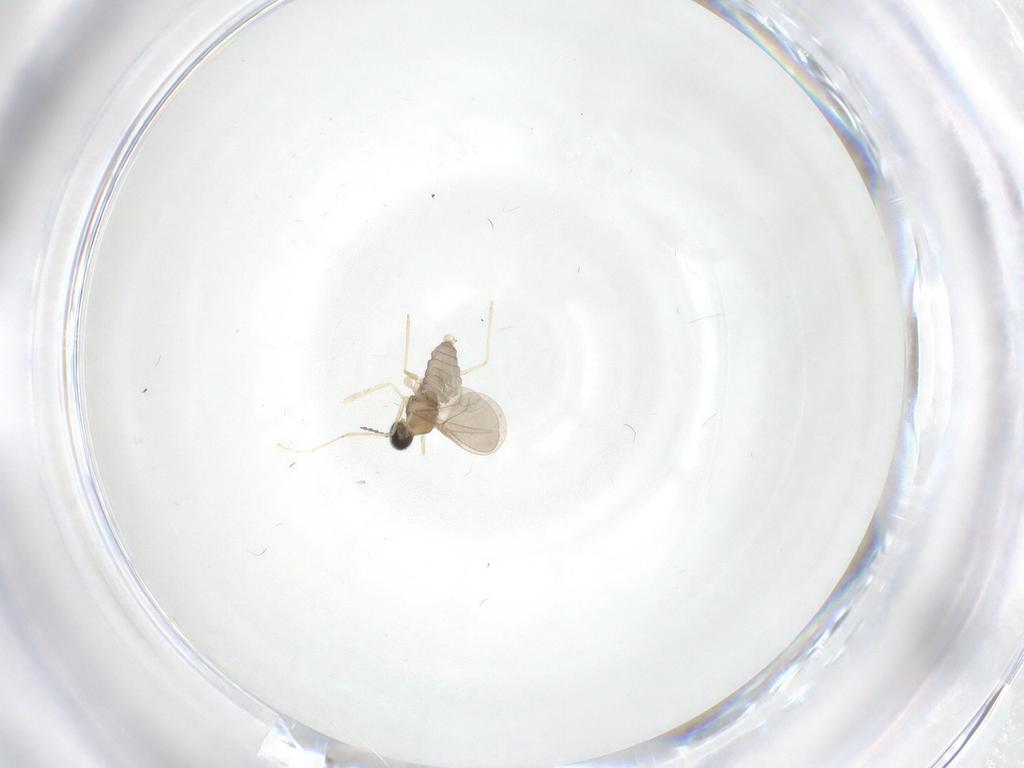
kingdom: Animalia
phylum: Arthropoda
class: Insecta
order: Diptera
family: Cecidomyiidae
